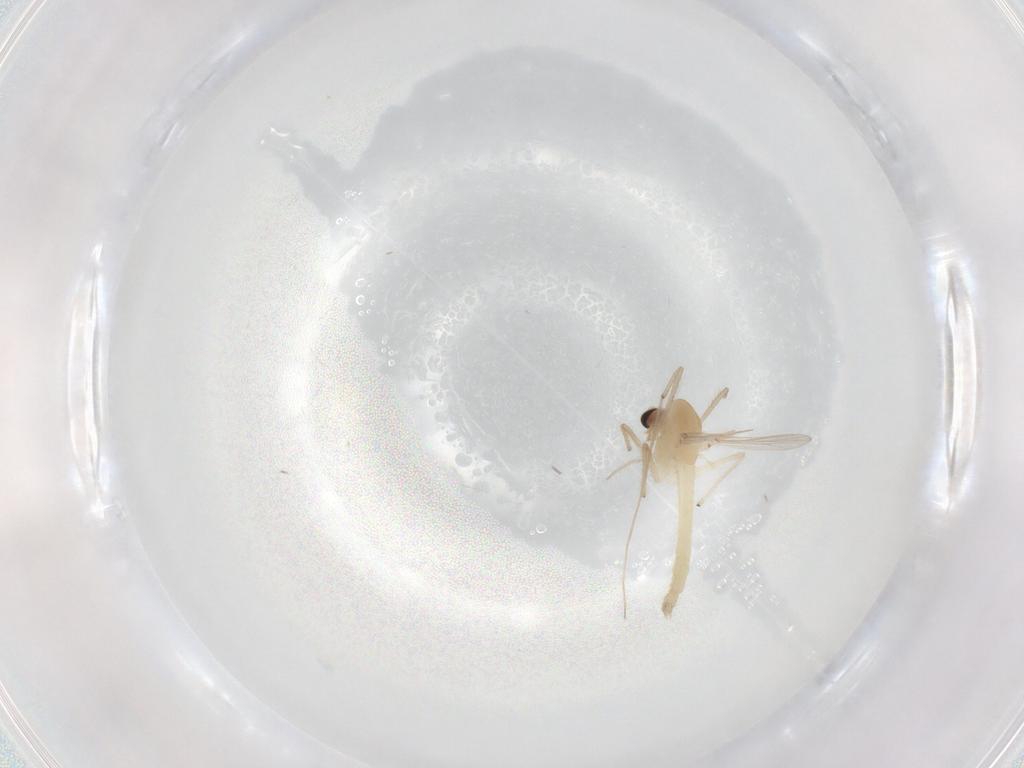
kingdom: Animalia
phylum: Arthropoda
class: Insecta
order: Diptera
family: Chironomidae
